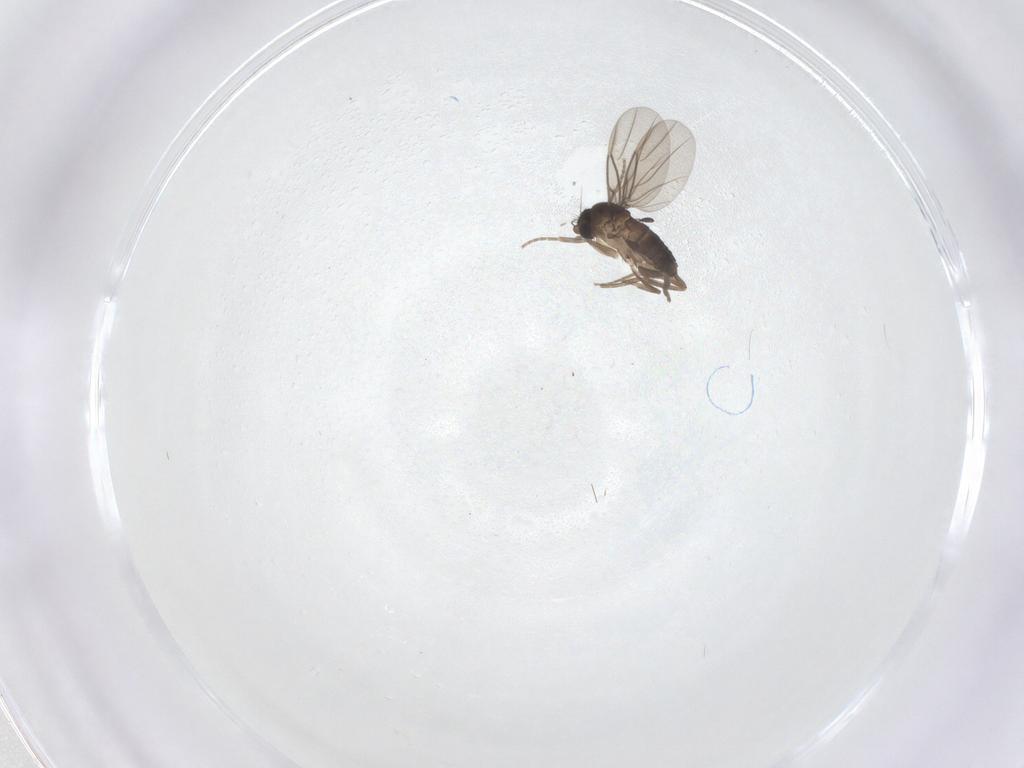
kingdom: Animalia
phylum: Arthropoda
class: Insecta
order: Diptera
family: Phoridae
